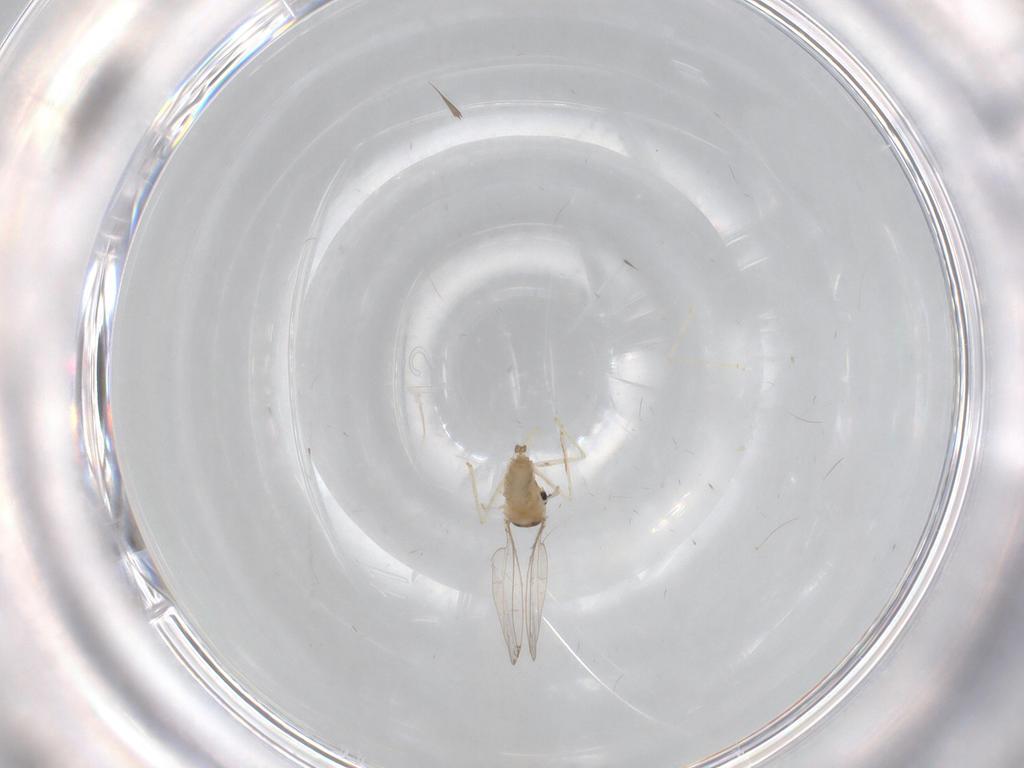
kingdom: Animalia
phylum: Arthropoda
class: Insecta
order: Diptera
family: Cecidomyiidae
